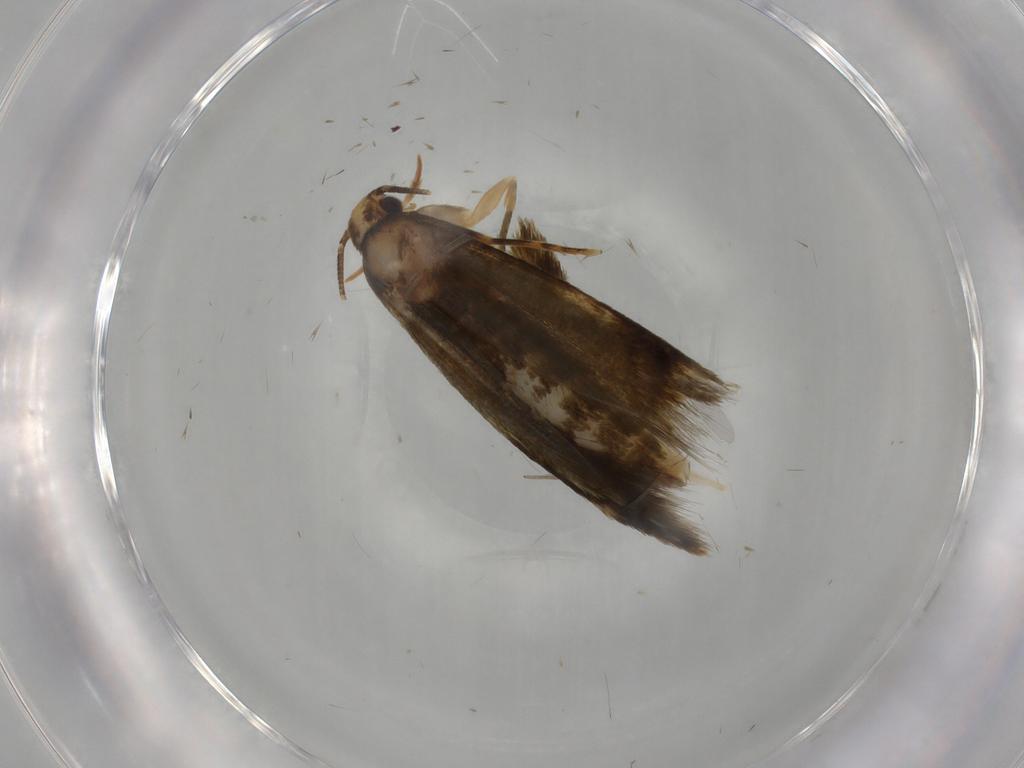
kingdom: Animalia
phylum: Arthropoda
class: Insecta
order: Lepidoptera
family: Tineidae
